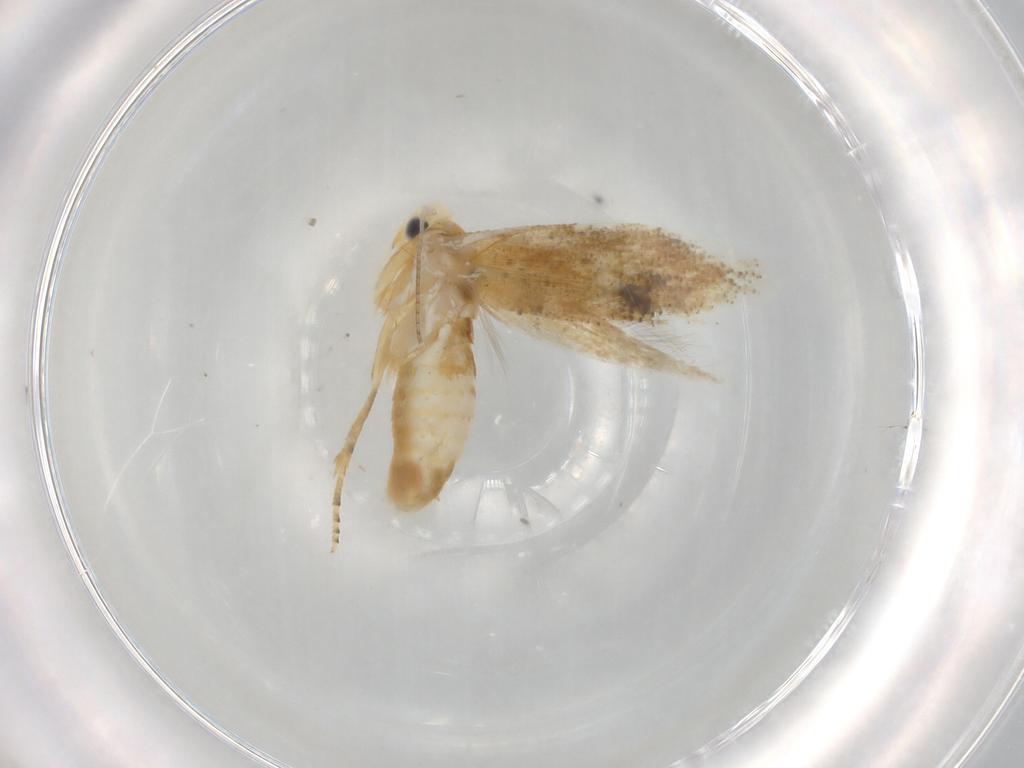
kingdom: Animalia
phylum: Arthropoda
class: Insecta
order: Lepidoptera
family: Bucculatricidae
